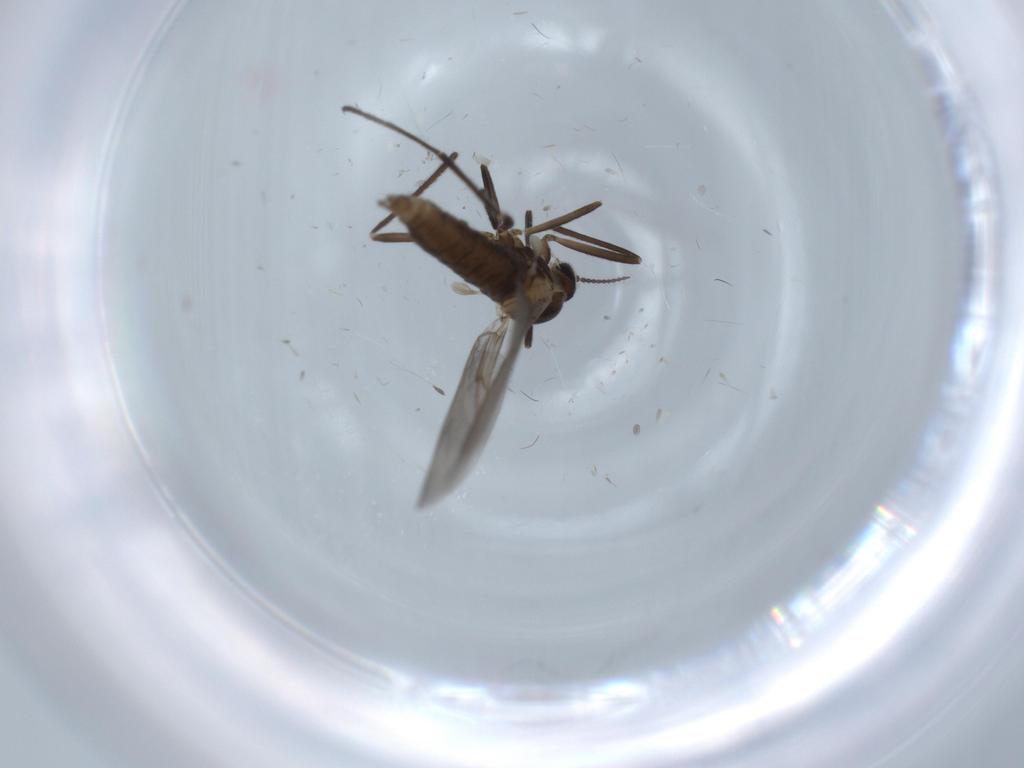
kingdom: Animalia
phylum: Arthropoda
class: Insecta
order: Diptera
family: Cecidomyiidae
